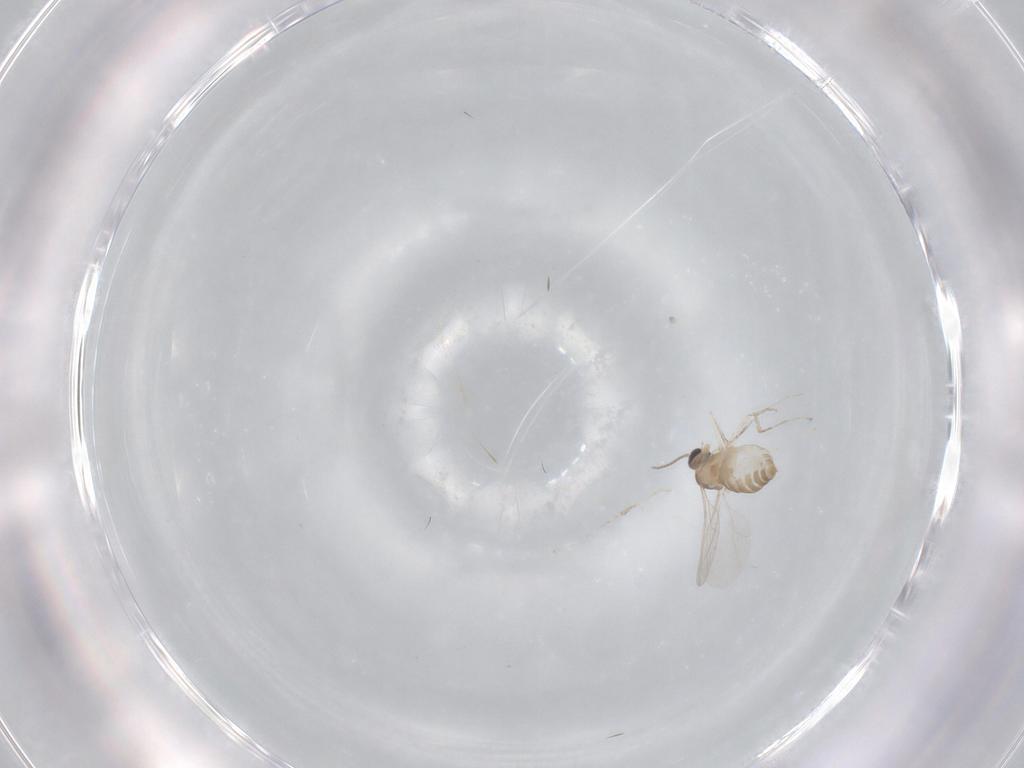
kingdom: Animalia
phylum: Arthropoda
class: Insecta
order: Diptera
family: Cecidomyiidae
